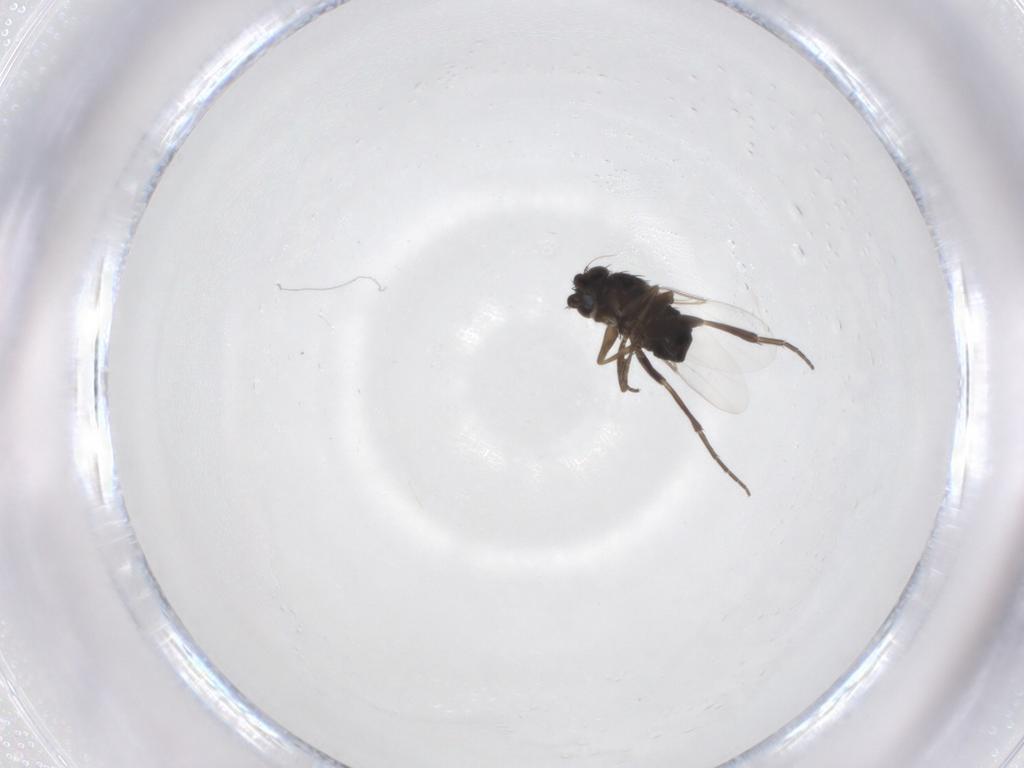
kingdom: Animalia
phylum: Arthropoda
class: Insecta
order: Diptera
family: Phoridae
